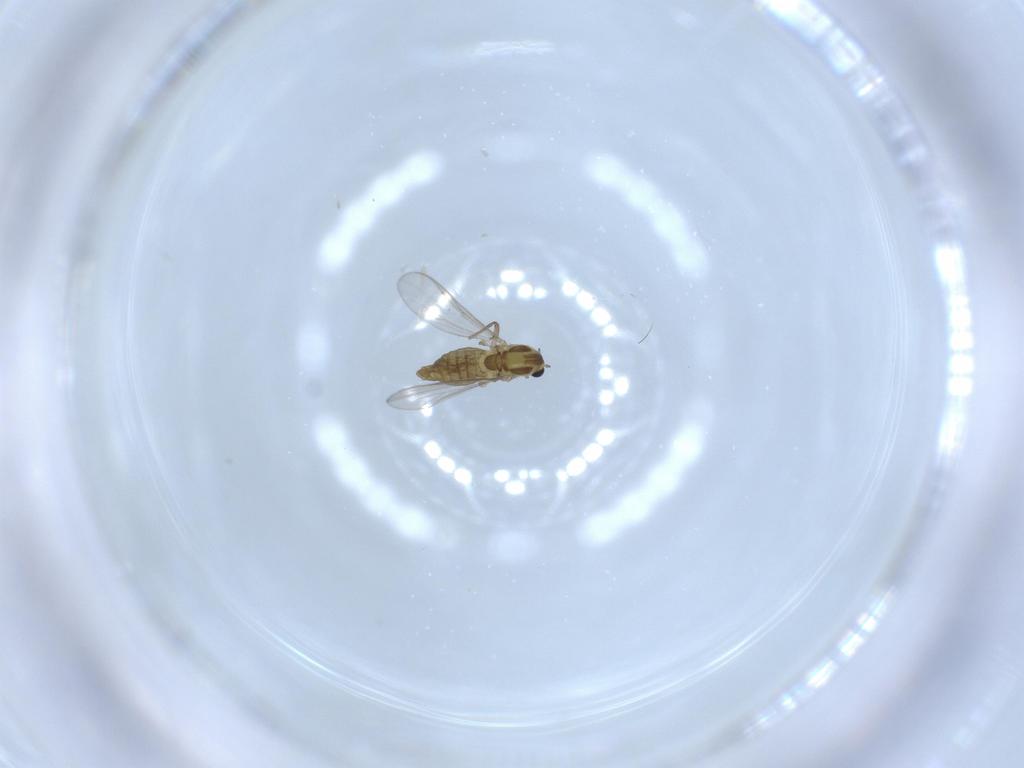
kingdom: Animalia
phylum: Arthropoda
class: Insecta
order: Diptera
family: Chironomidae
